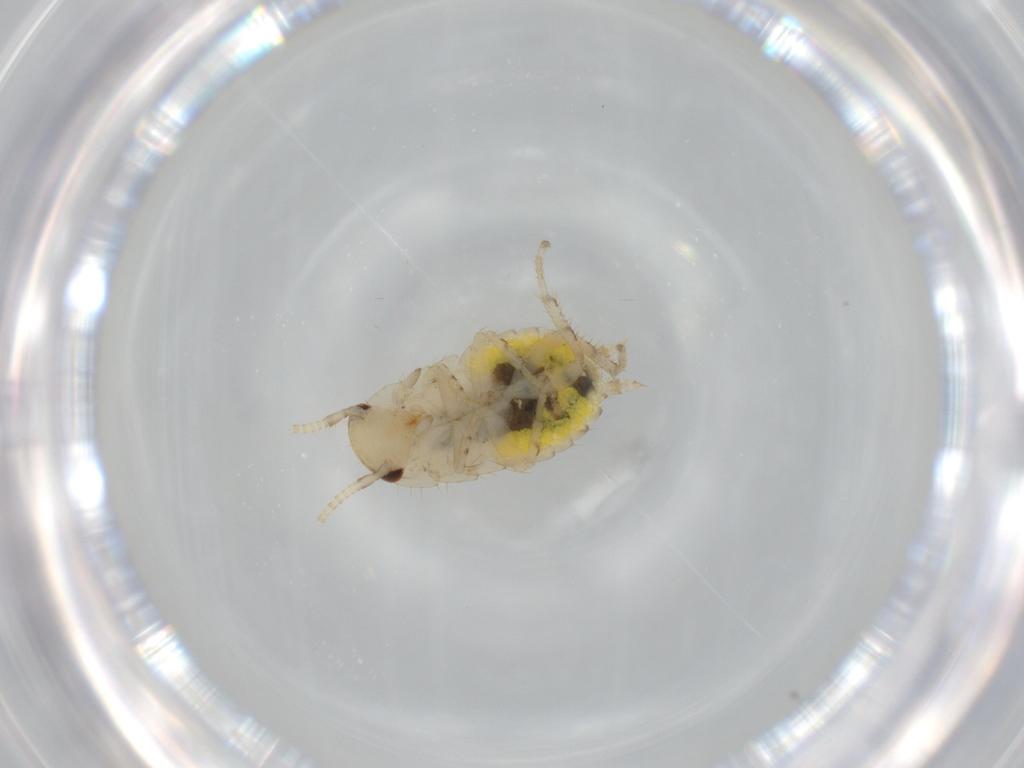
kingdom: Animalia
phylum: Arthropoda
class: Insecta
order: Blattodea
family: Ectobiidae
